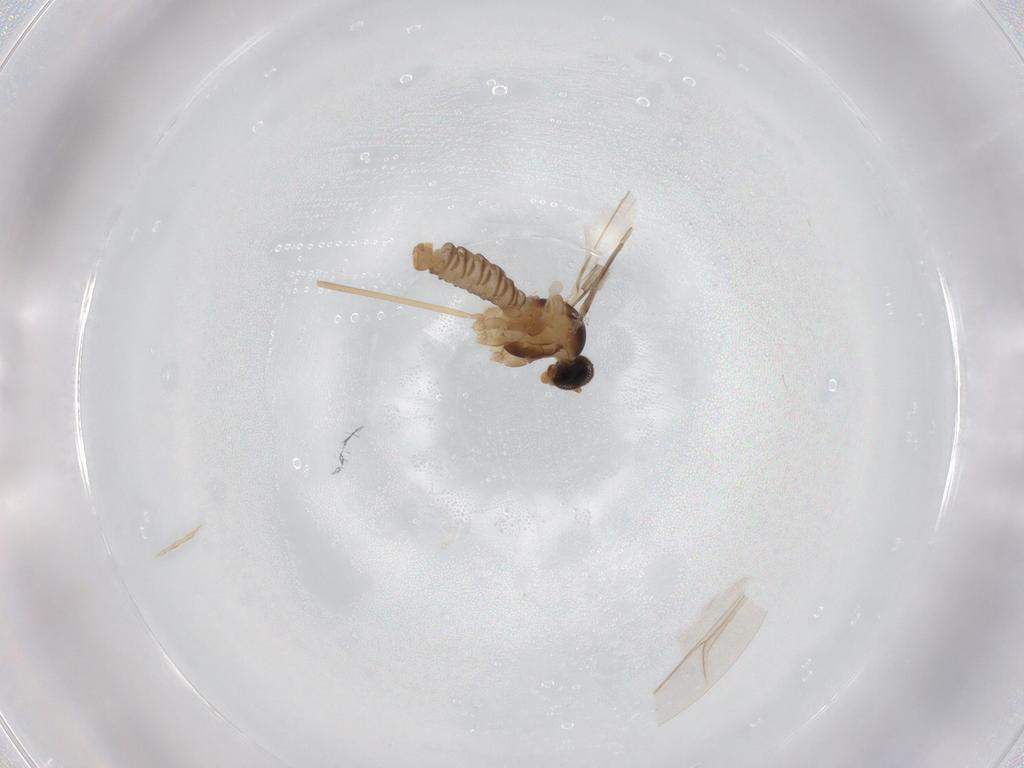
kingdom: Animalia
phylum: Arthropoda
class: Insecta
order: Diptera
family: Cecidomyiidae
